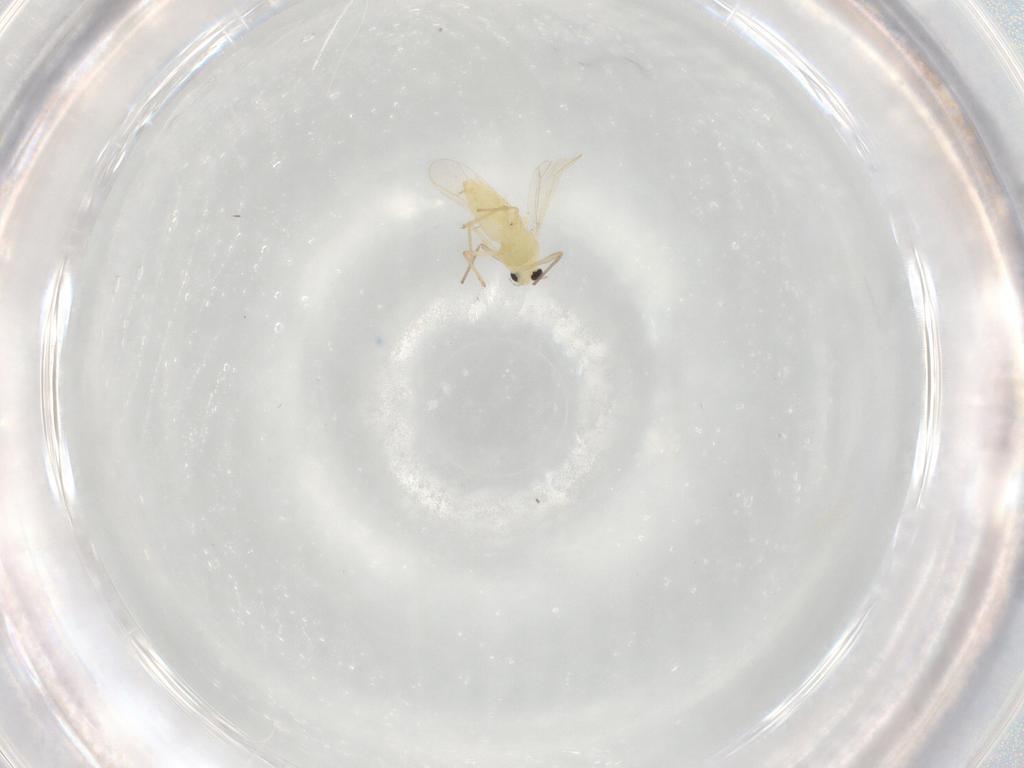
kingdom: Animalia
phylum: Arthropoda
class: Insecta
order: Diptera
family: Chironomidae
